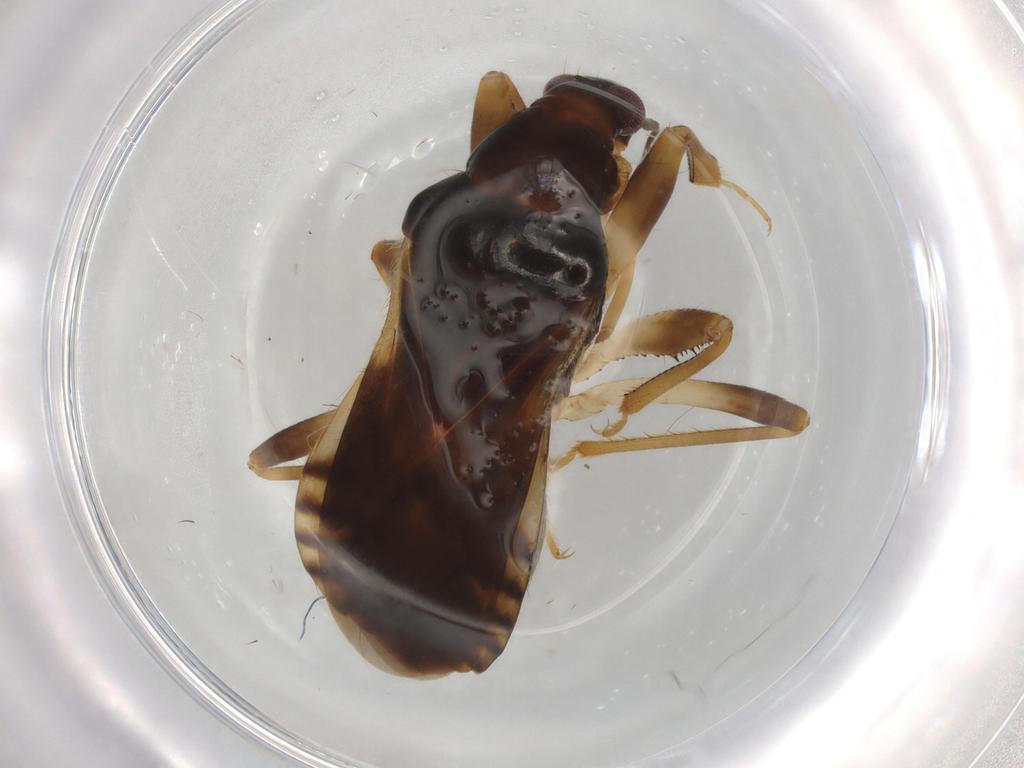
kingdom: Animalia
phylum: Arthropoda
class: Insecta
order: Hemiptera
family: Nabidae
